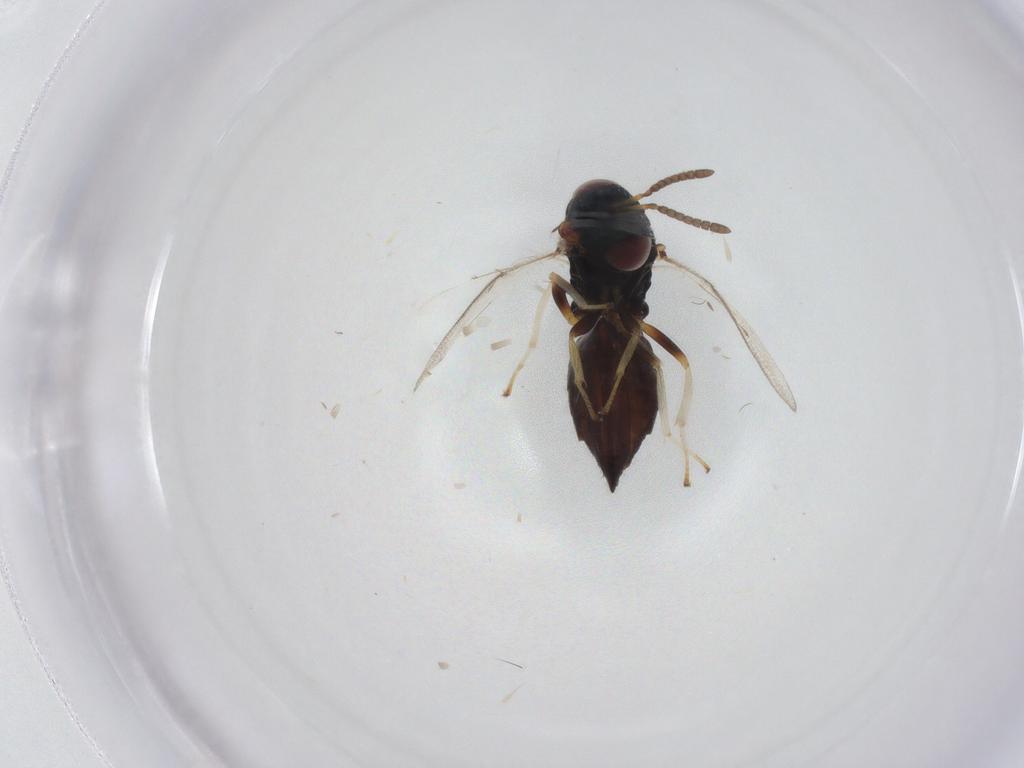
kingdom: Animalia
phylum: Arthropoda
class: Insecta
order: Hymenoptera
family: Pteromalidae
